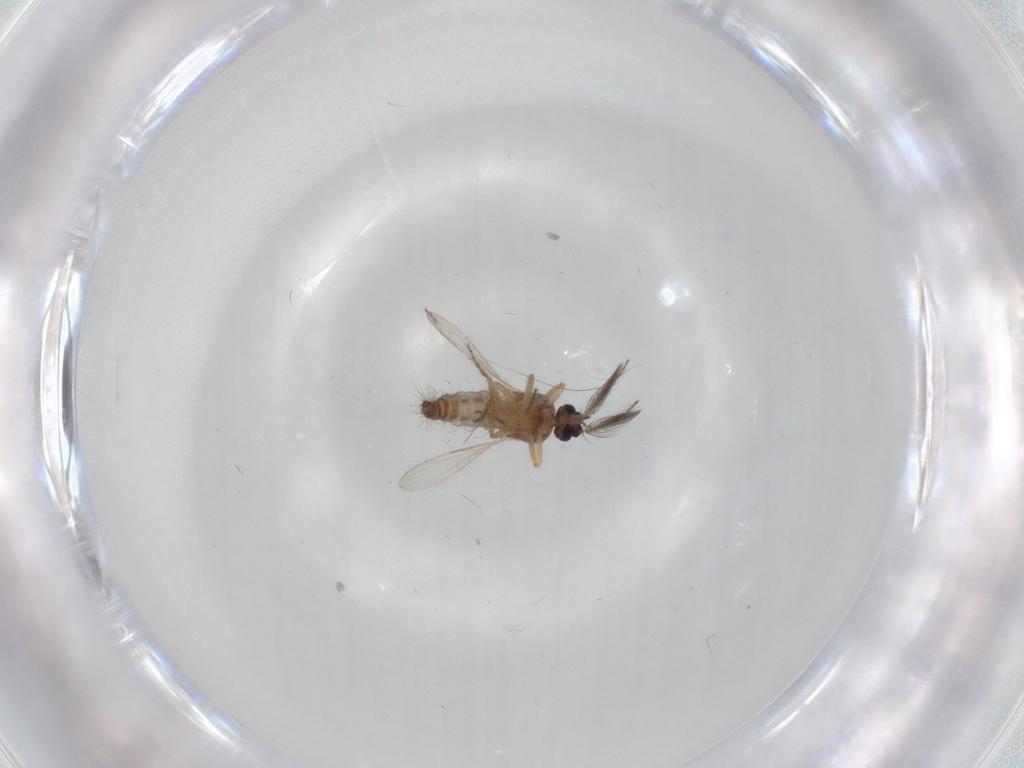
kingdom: Animalia
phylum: Arthropoda
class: Insecta
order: Diptera
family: Ceratopogonidae
